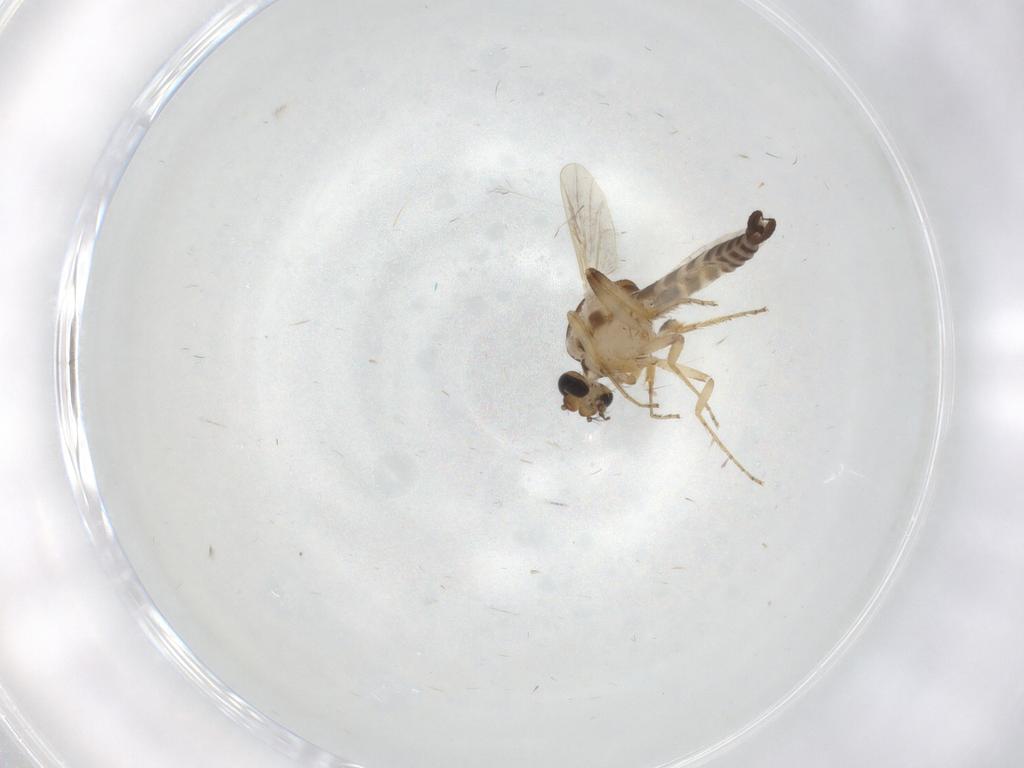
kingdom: Animalia
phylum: Arthropoda
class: Insecta
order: Diptera
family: Ceratopogonidae
